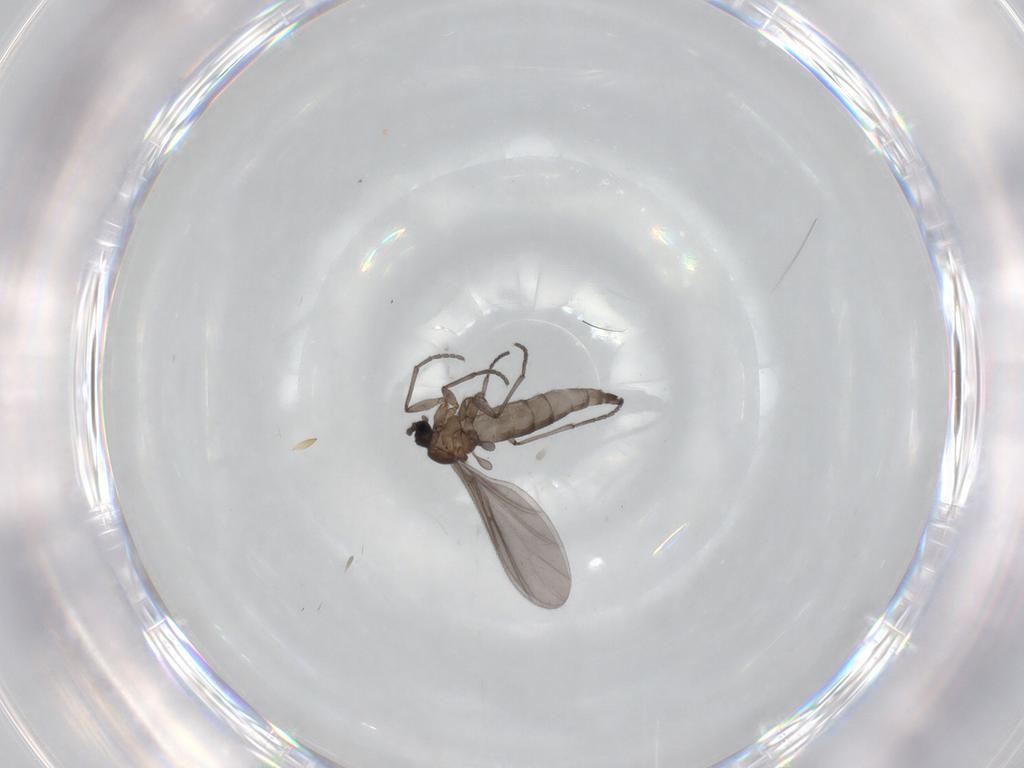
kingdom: Animalia
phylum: Arthropoda
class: Insecta
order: Diptera
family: Sciaridae
